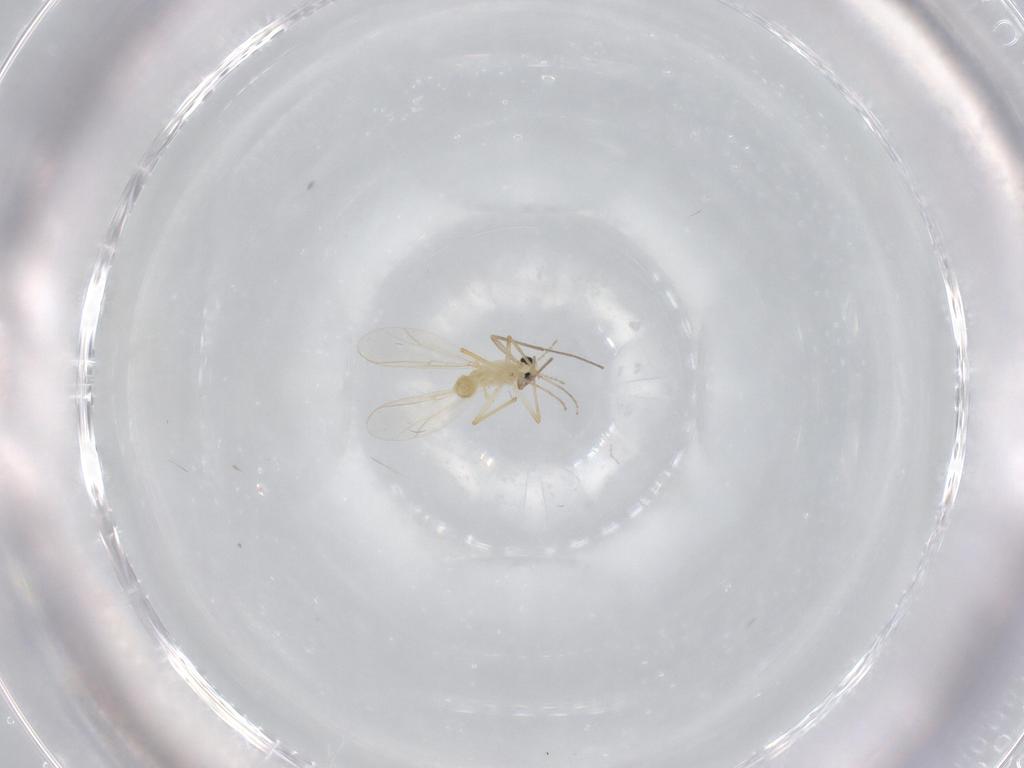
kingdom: Animalia
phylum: Arthropoda
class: Insecta
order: Diptera
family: Chironomidae
